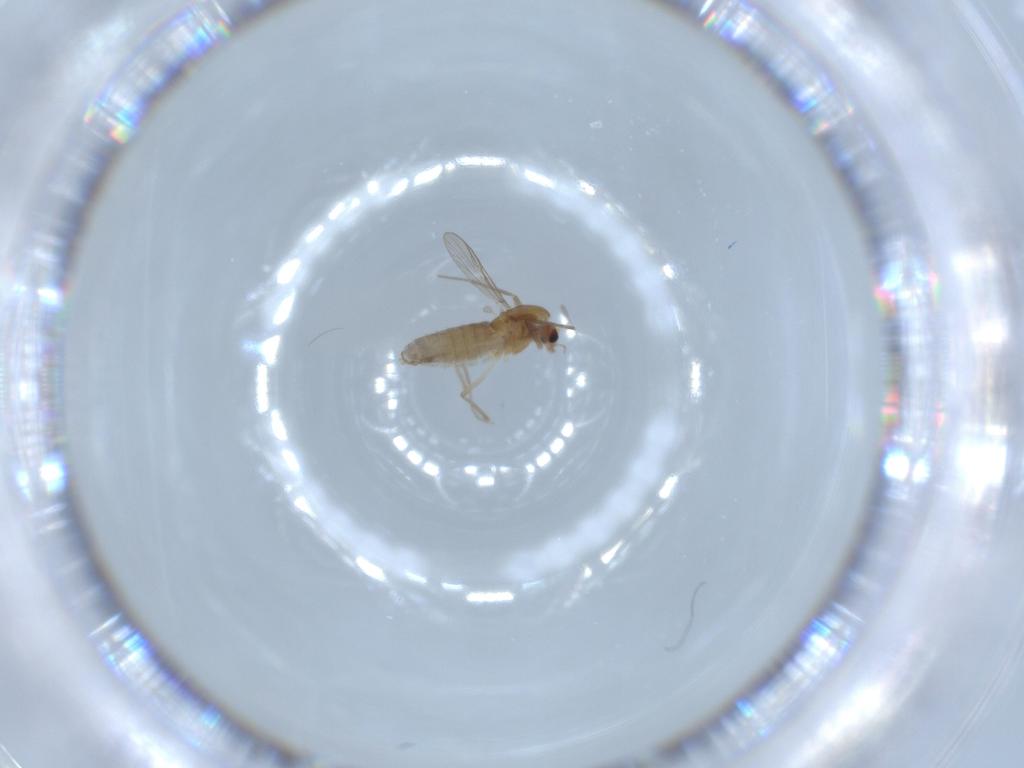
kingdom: Animalia
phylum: Arthropoda
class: Insecta
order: Diptera
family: Chironomidae
